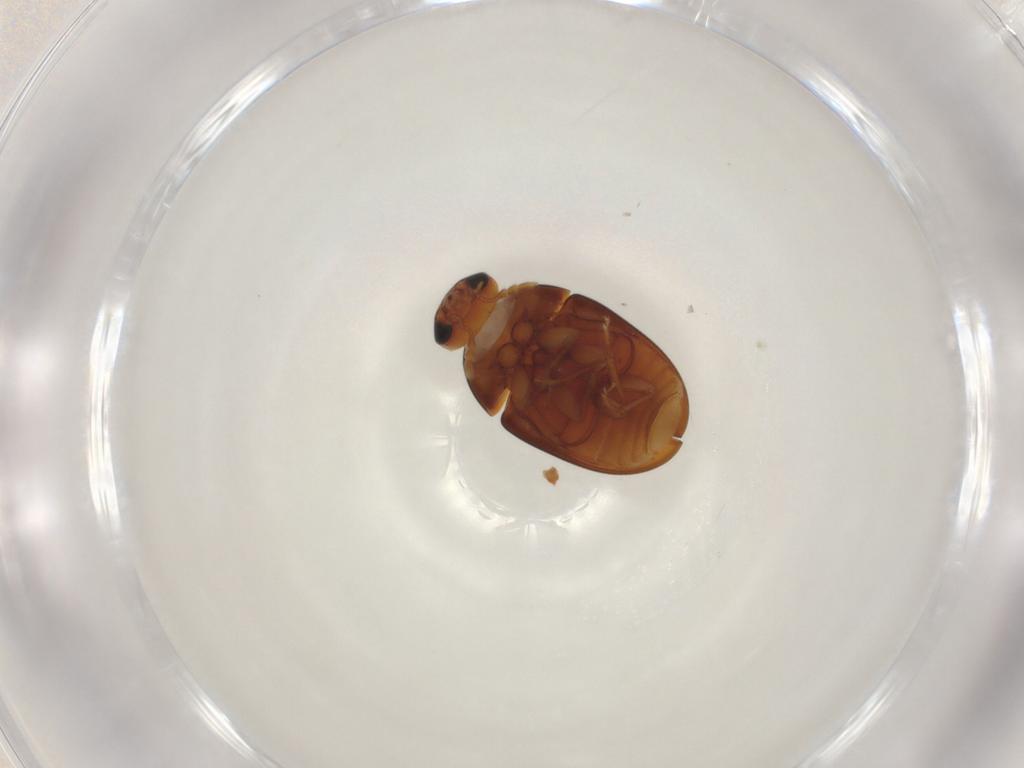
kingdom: Animalia
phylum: Arthropoda
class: Insecta
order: Coleoptera
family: Phalacridae
